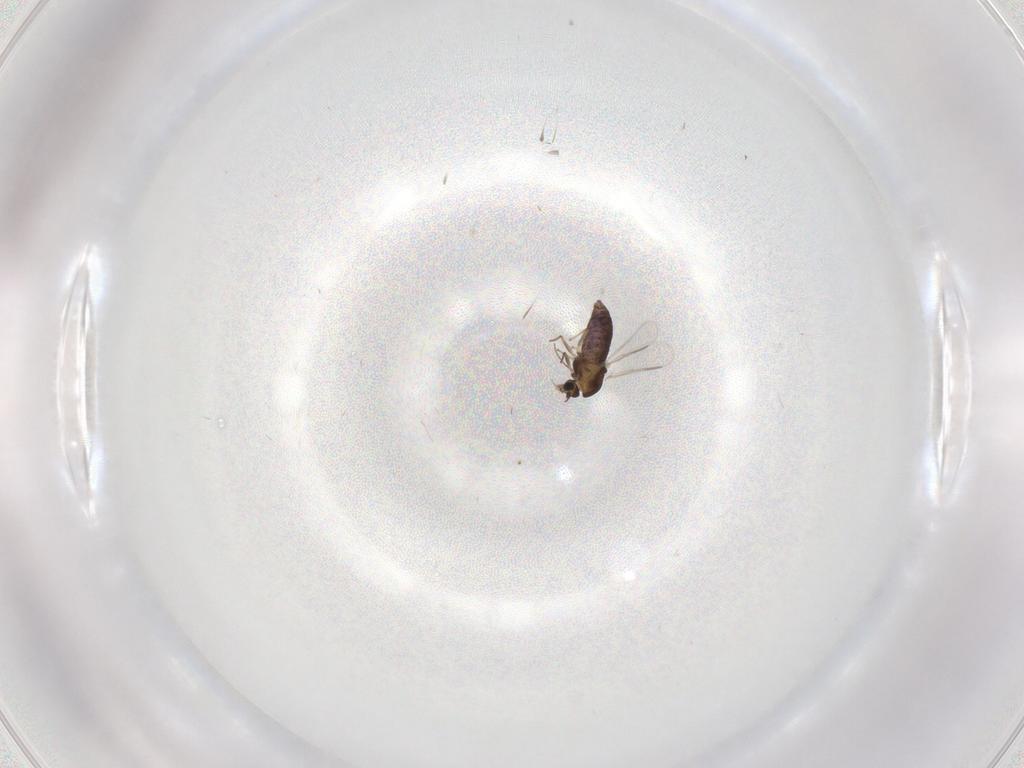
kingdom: Animalia
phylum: Arthropoda
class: Insecta
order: Diptera
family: Chironomidae
